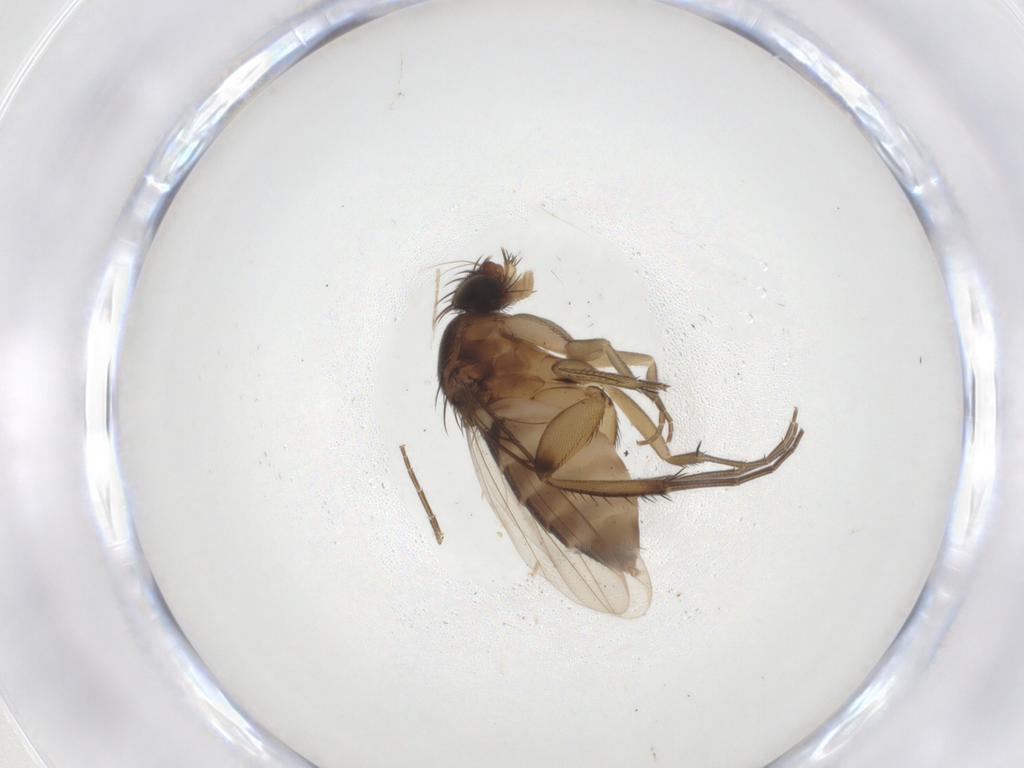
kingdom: Animalia
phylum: Arthropoda
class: Insecta
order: Diptera
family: Phoridae
